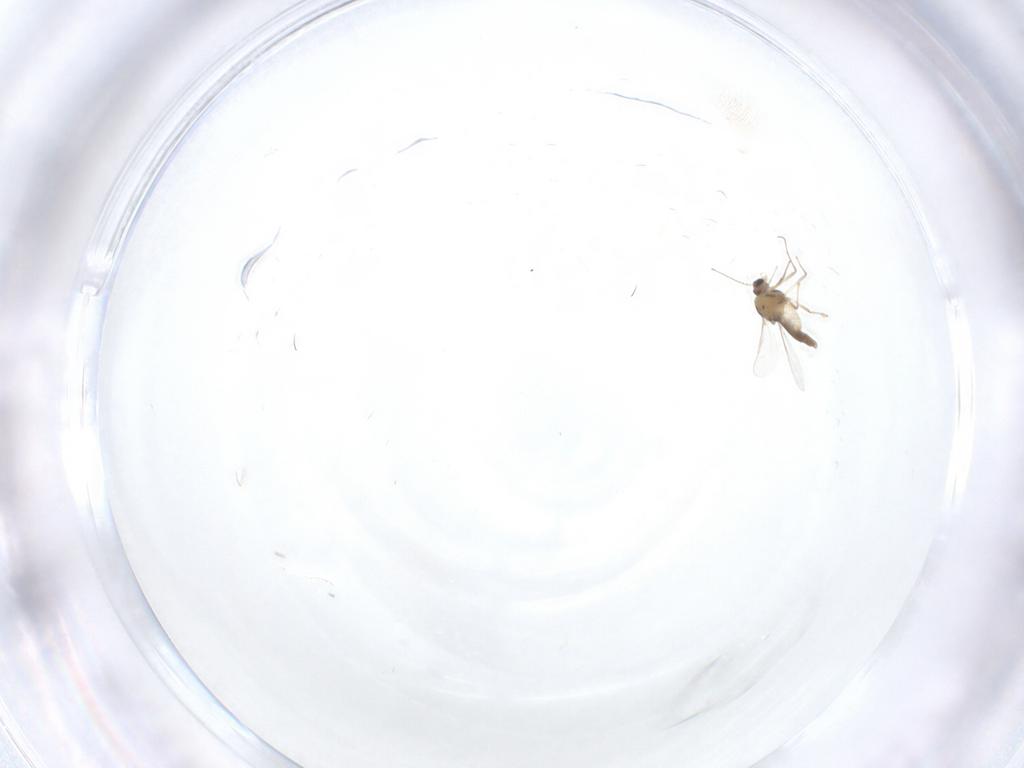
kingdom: Animalia
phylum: Arthropoda
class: Insecta
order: Diptera
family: Chironomidae
